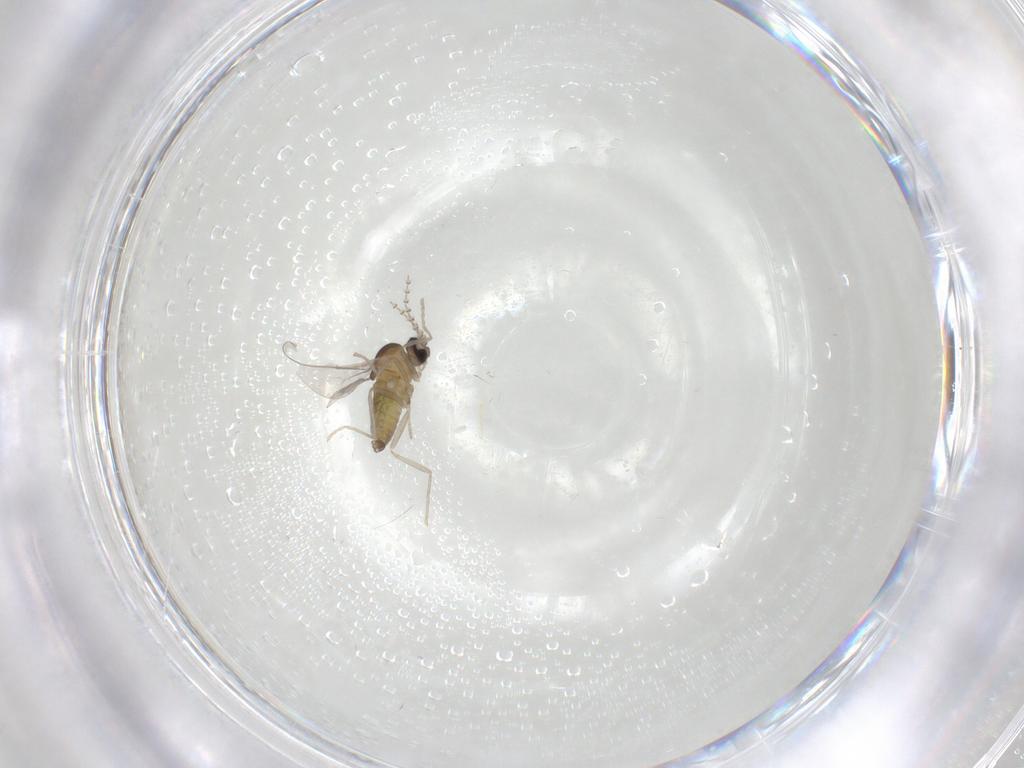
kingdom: Animalia
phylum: Arthropoda
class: Insecta
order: Diptera
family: Cecidomyiidae
